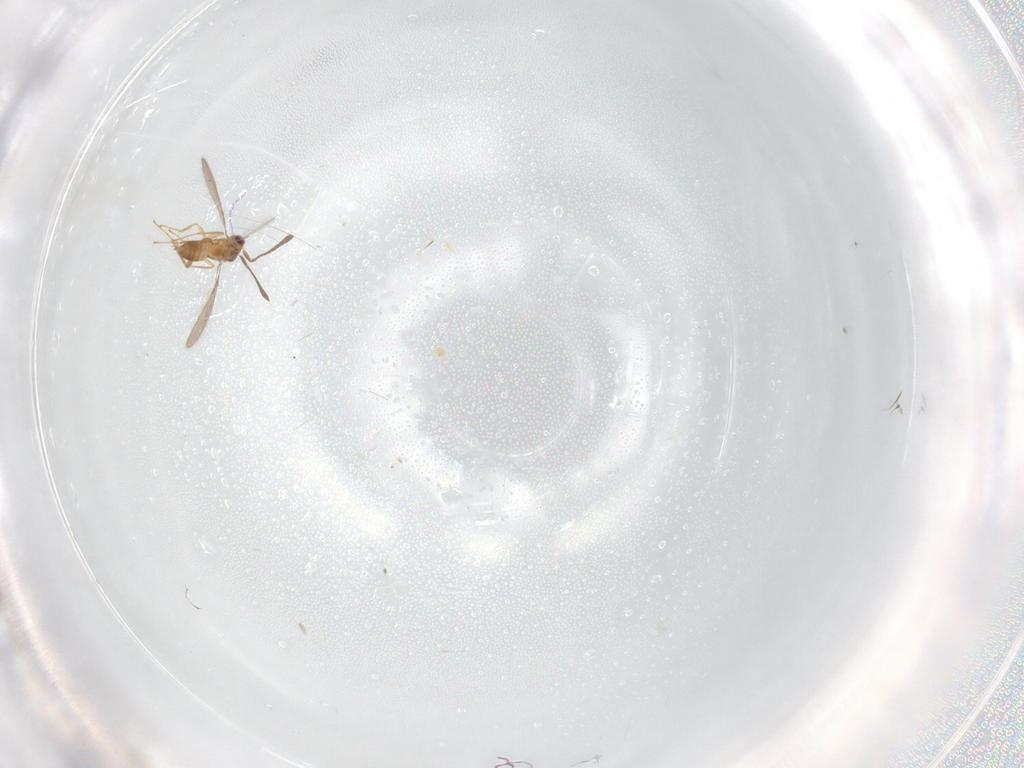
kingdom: Animalia
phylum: Arthropoda
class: Insecta
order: Hymenoptera
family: Mymaridae
